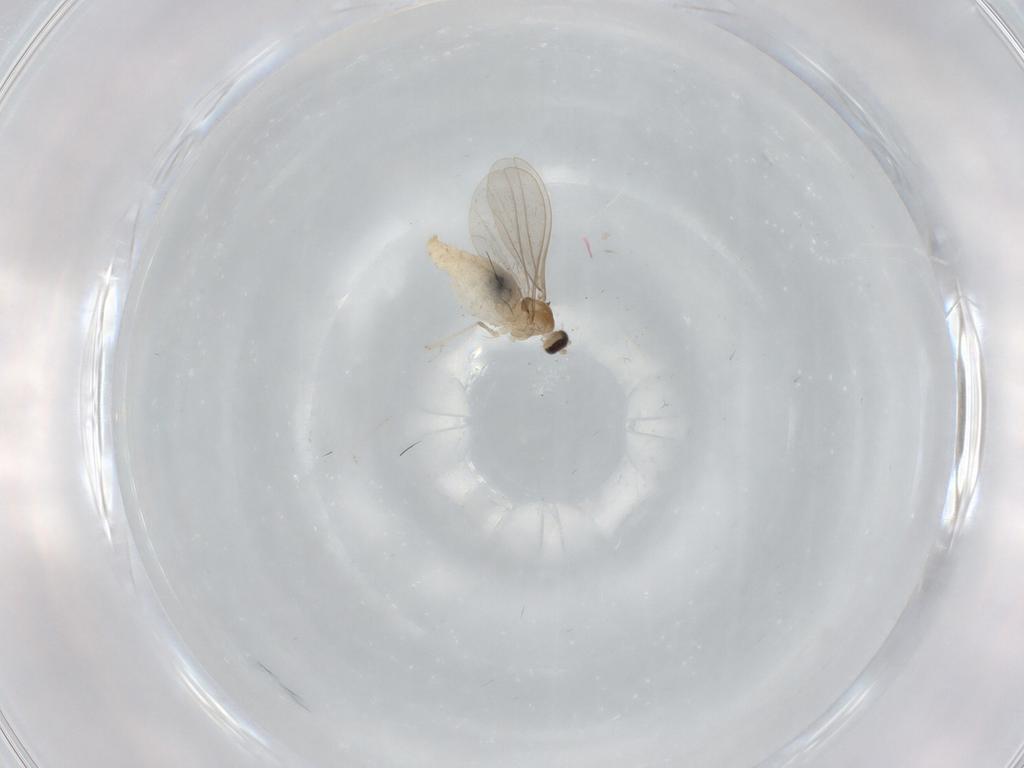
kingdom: Animalia
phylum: Arthropoda
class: Insecta
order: Diptera
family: Cecidomyiidae
